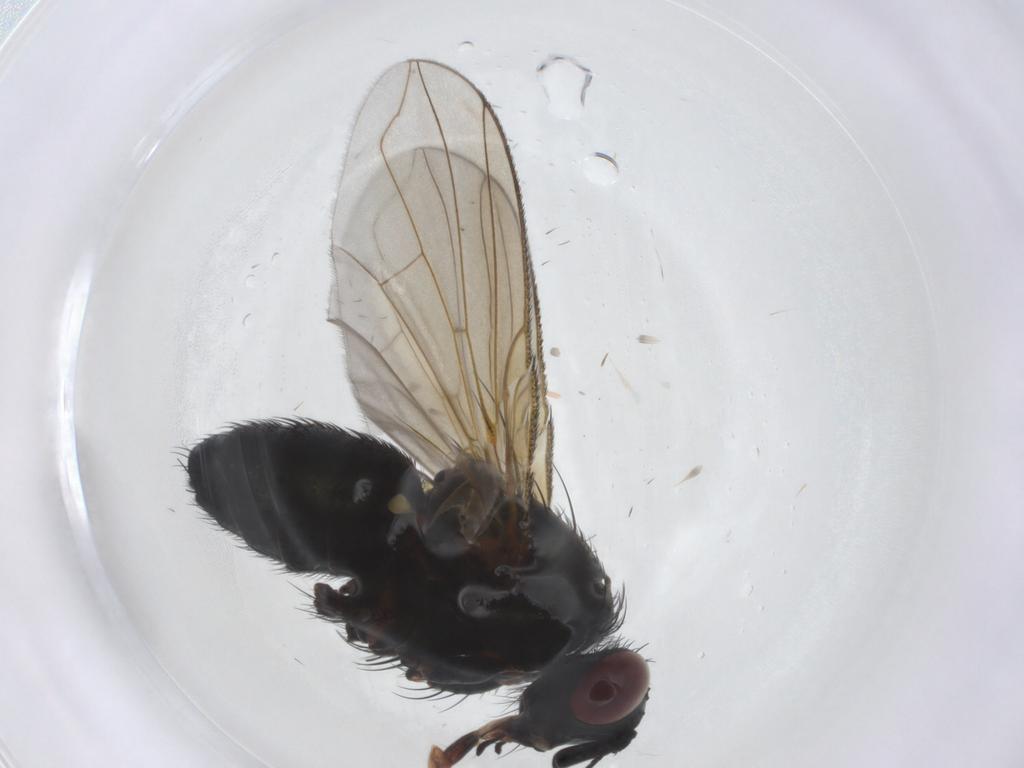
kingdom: Animalia
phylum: Arthropoda
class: Insecta
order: Diptera
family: Tachinidae
